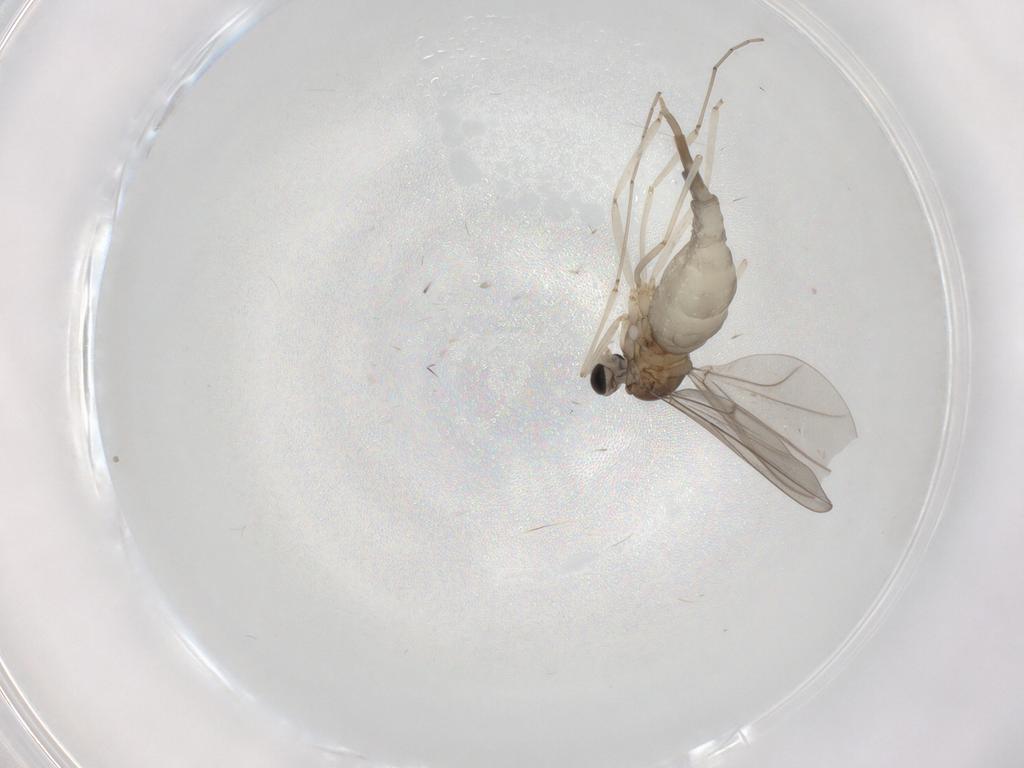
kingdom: Animalia
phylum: Arthropoda
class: Insecta
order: Diptera
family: Cecidomyiidae
